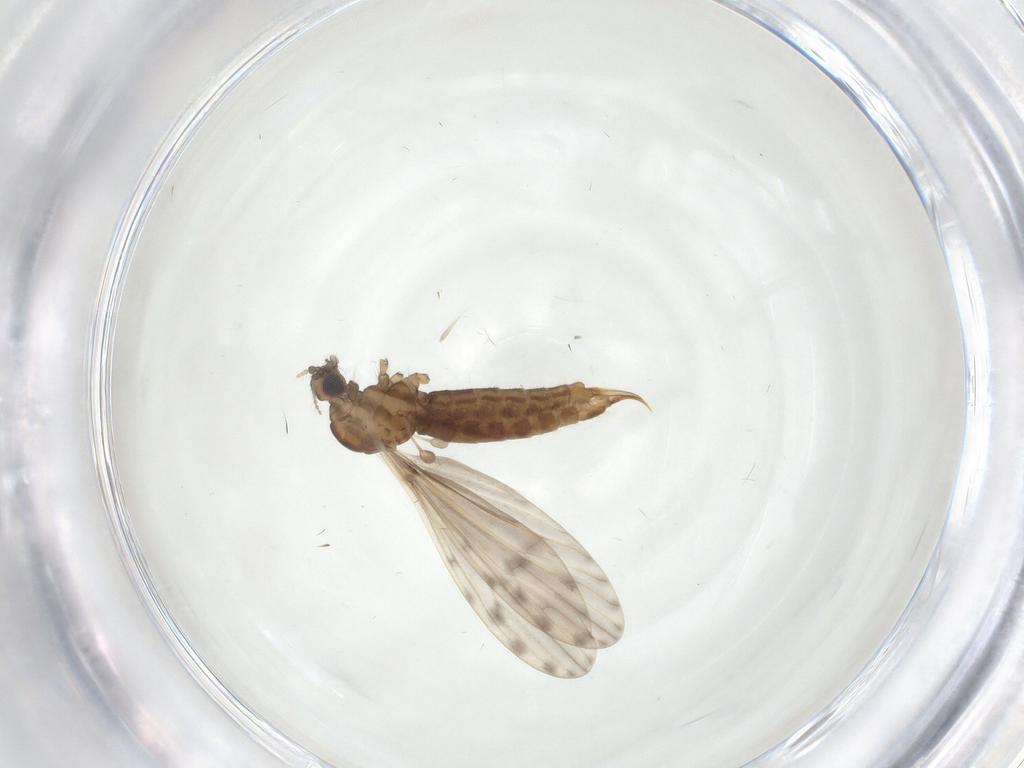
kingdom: Animalia
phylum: Arthropoda
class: Insecta
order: Diptera
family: Limoniidae
